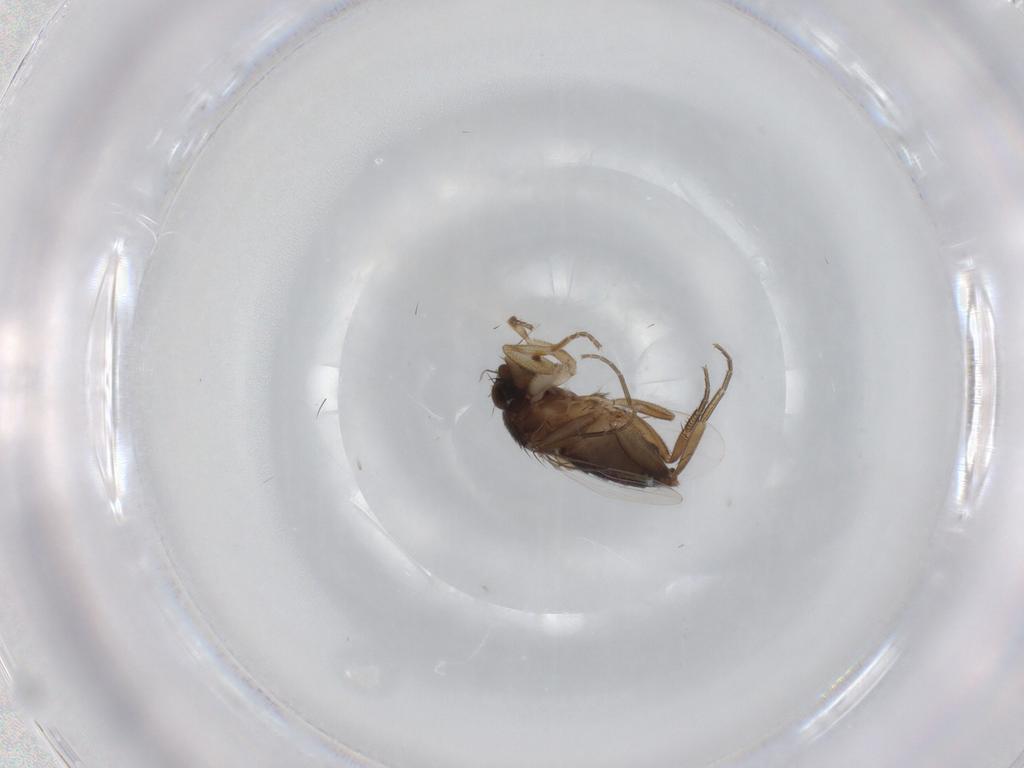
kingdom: Animalia
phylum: Arthropoda
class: Insecta
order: Diptera
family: Phoridae
